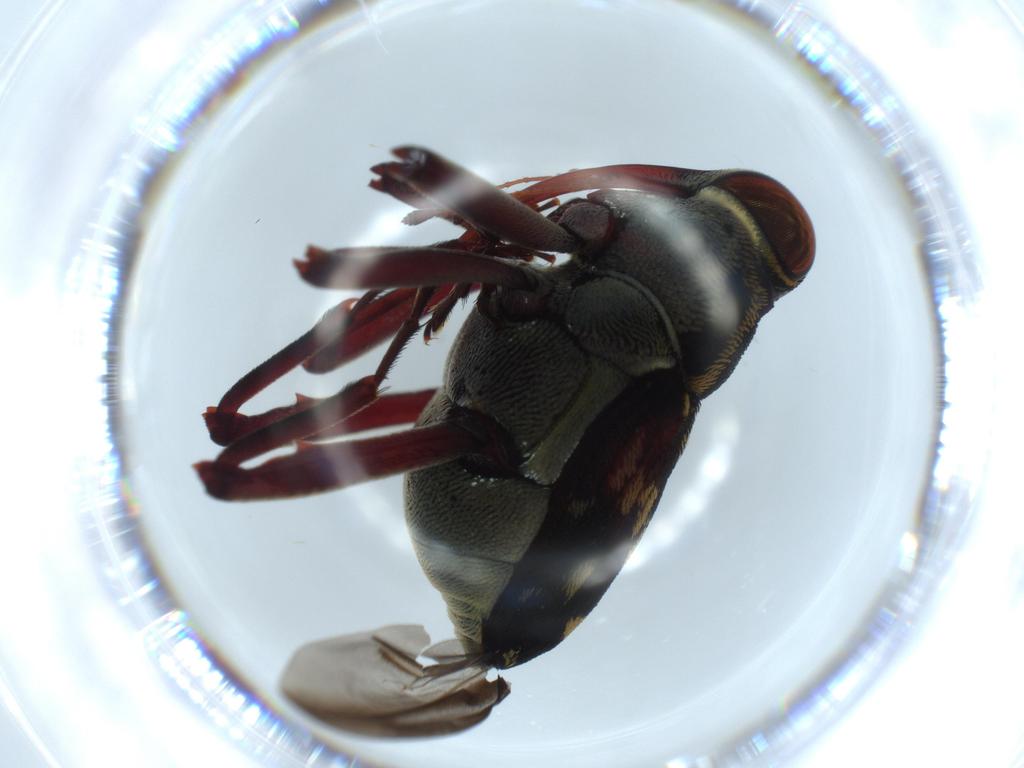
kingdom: Animalia
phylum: Arthropoda
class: Insecta
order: Coleoptera
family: Curculionidae
